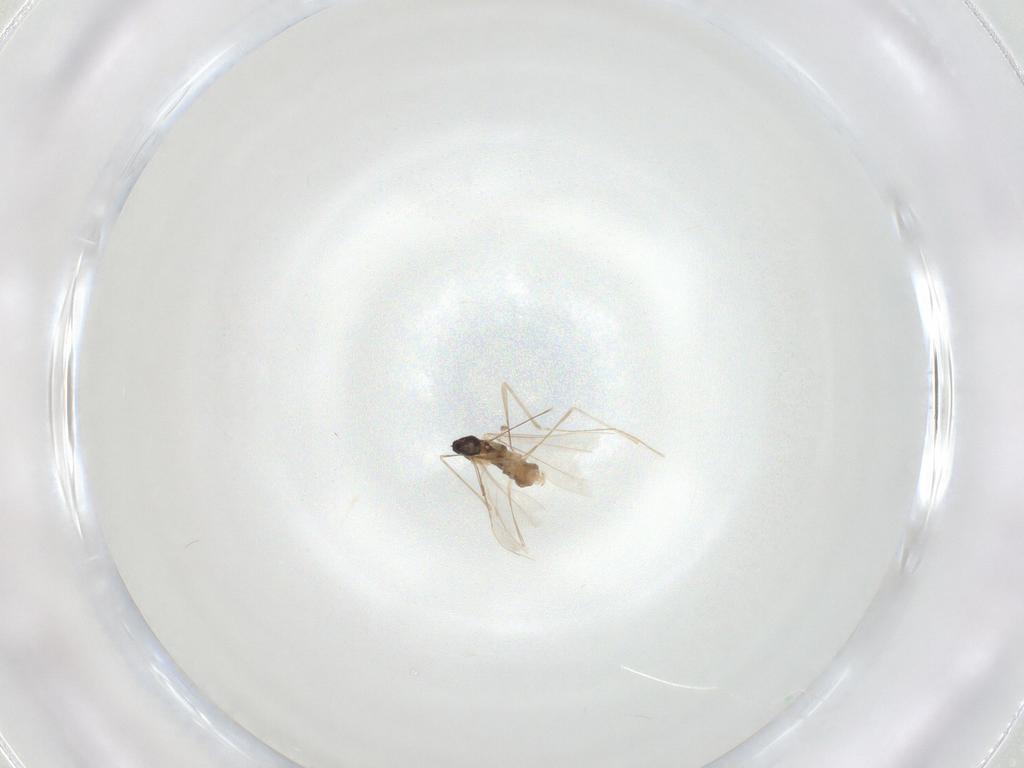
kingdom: Animalia
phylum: Arthropoda
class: Insecta
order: Diptera
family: Cecidomyiidae
